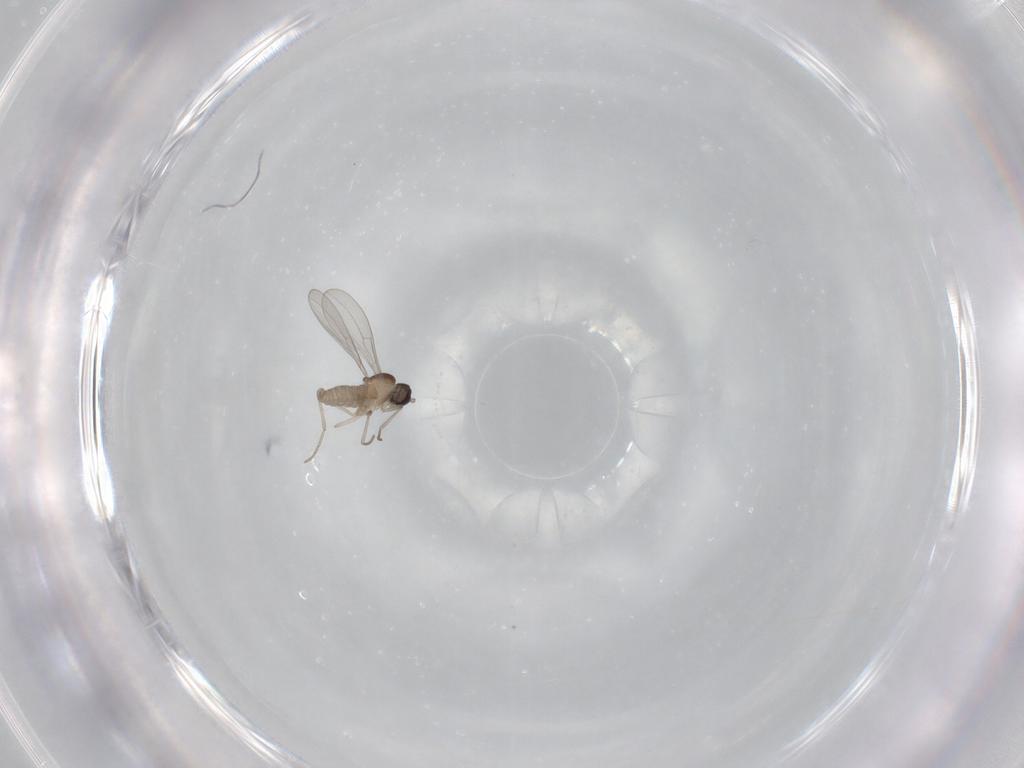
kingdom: Animalia
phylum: Arthropoda
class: Insecta
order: Diptera
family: Cecidomyiidae
